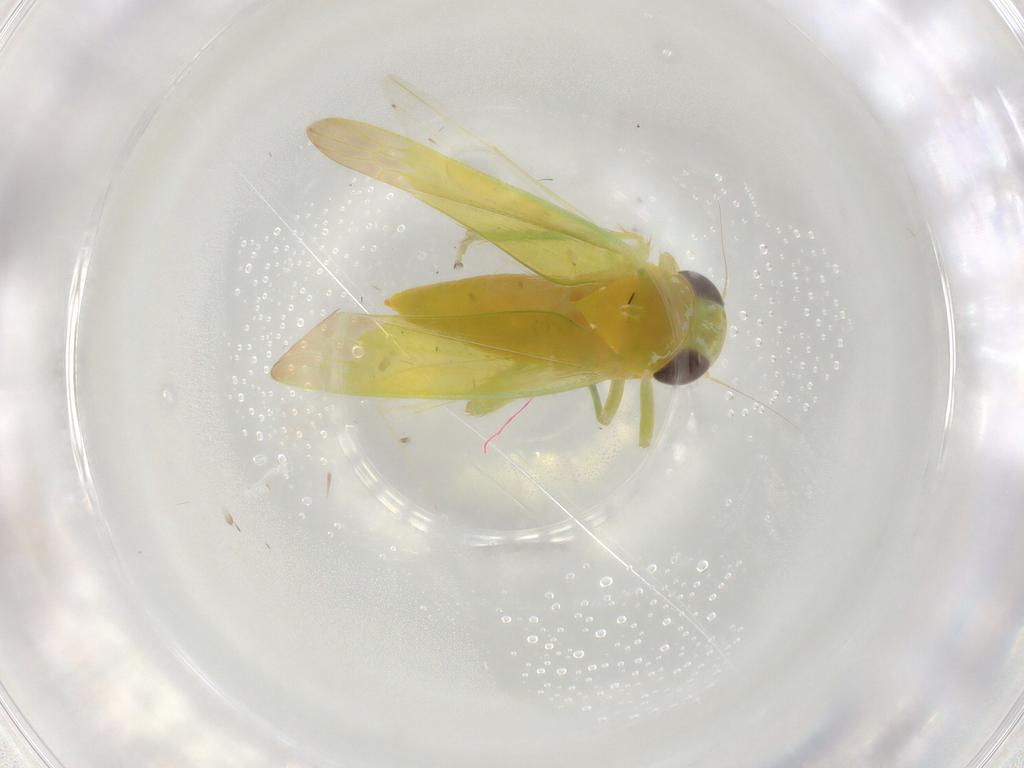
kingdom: Animalia
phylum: Arthropoda
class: Insecta
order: Hemiptera
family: Cicadellidae
